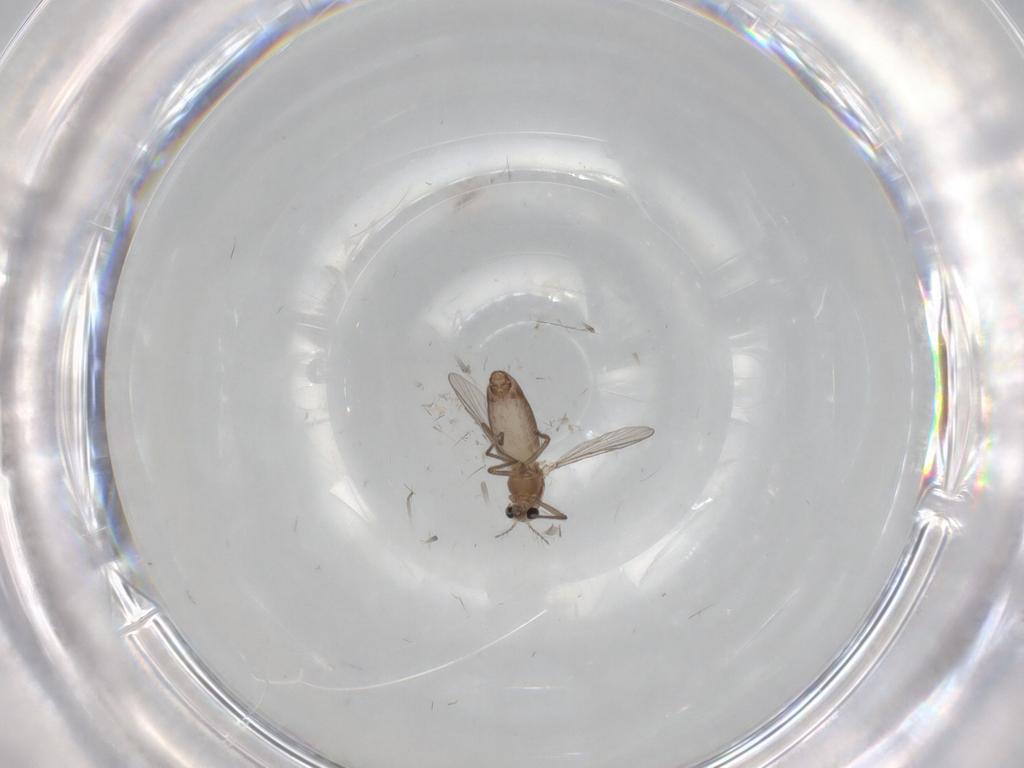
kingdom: Animalia
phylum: Arthropoda
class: Insecta
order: Diptera
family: Chironomidae
